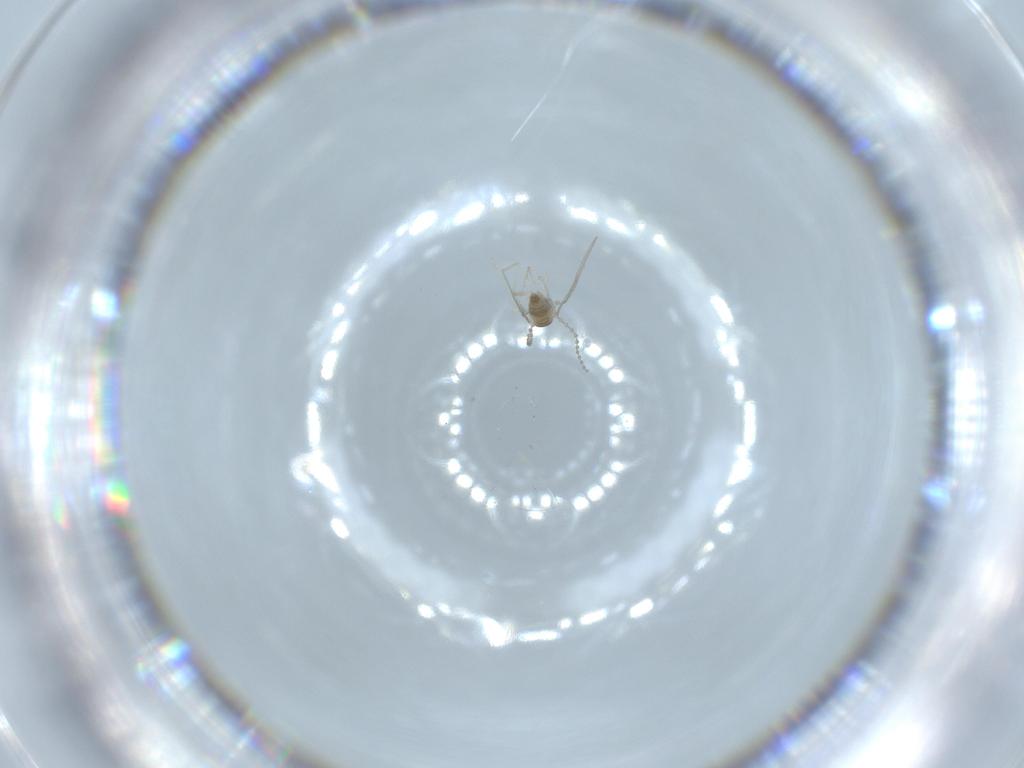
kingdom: Animalia
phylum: Arthropoda
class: Insecta
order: Diptera
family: Cecidomyiidae
